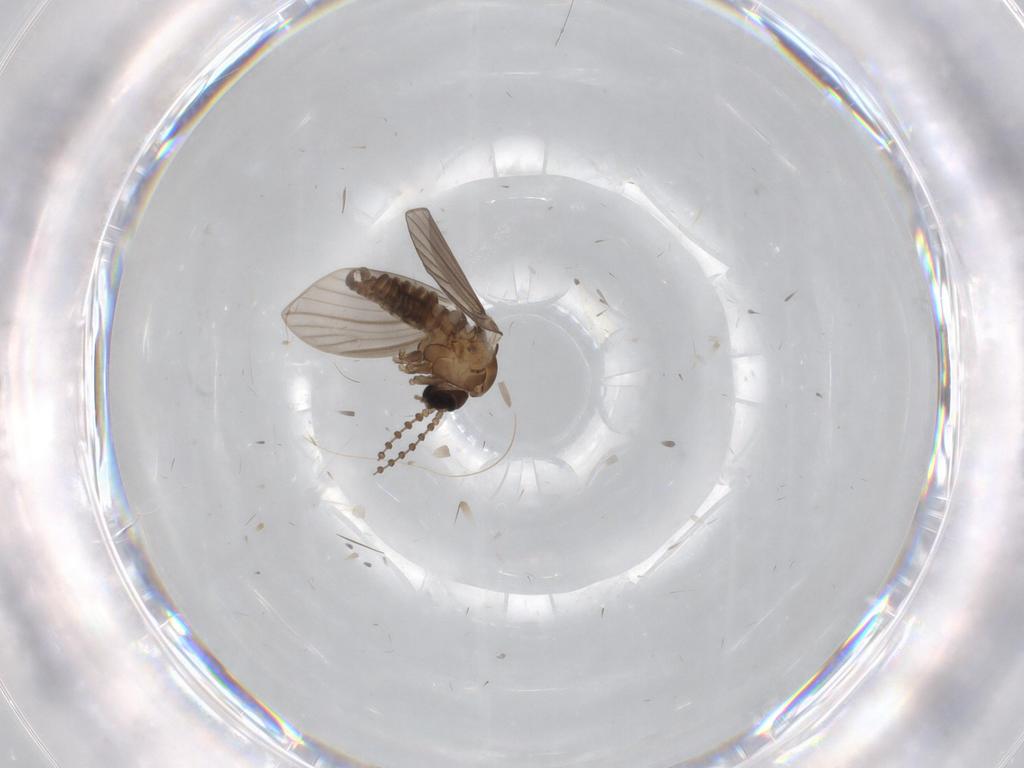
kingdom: Animalia
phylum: Arthropoda
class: Insecta
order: Diptera
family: Psychodidae
